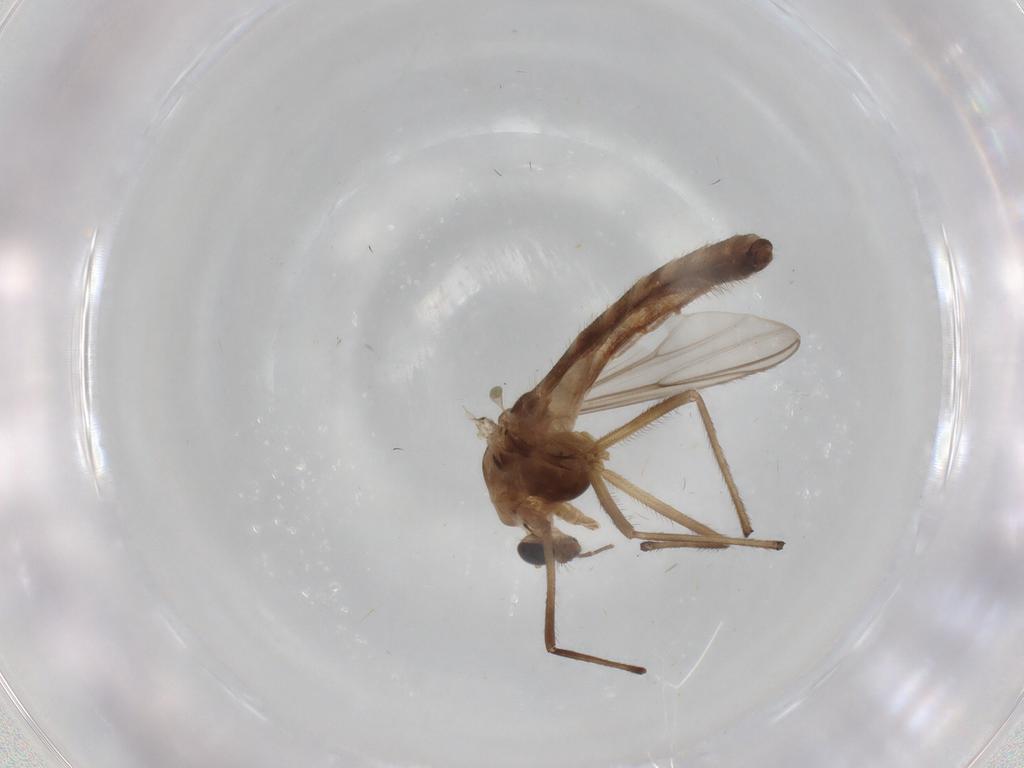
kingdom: Animalia
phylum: Arthropoda
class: Insecta
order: Diptera
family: Chironomidae
